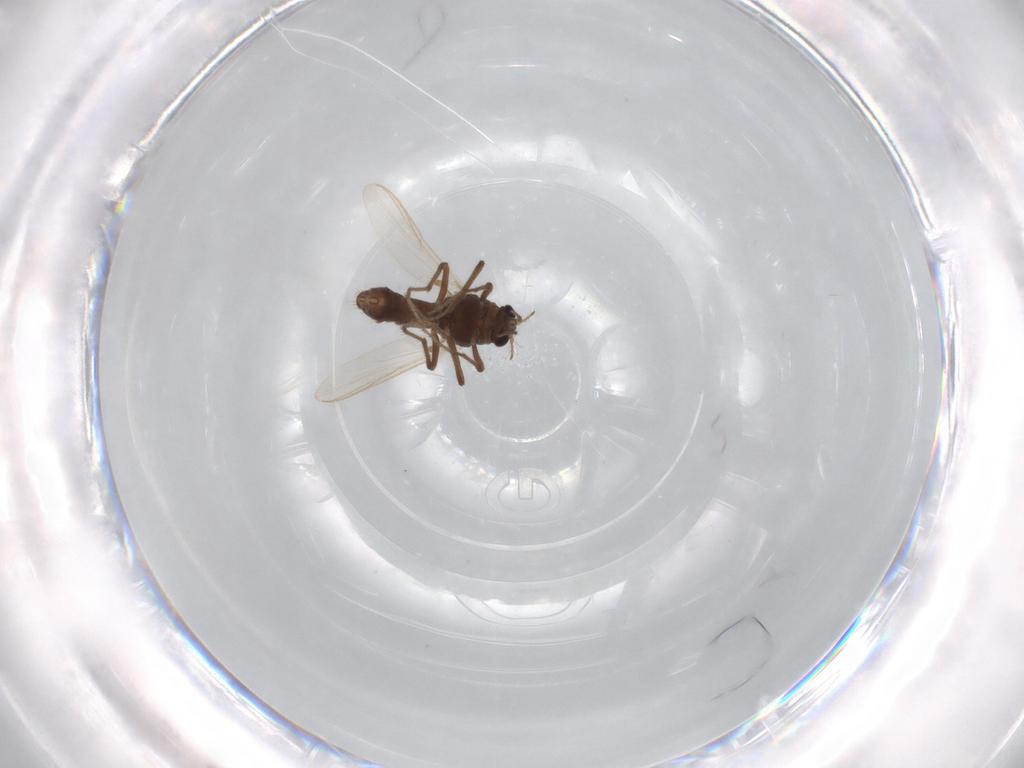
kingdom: Animalia
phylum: Arthropoda
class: Insecta
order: Diptera
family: Chironomidae
